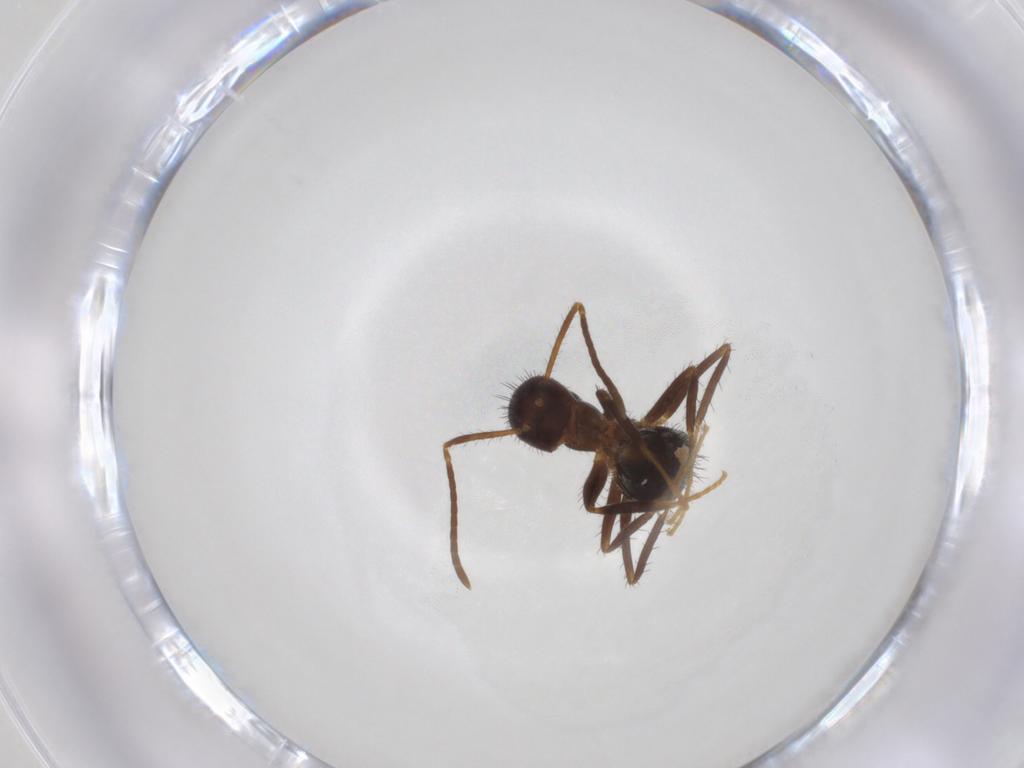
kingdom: Animalia
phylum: Arthropoda
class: Insecta
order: Hymenoptera
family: Formicidae
